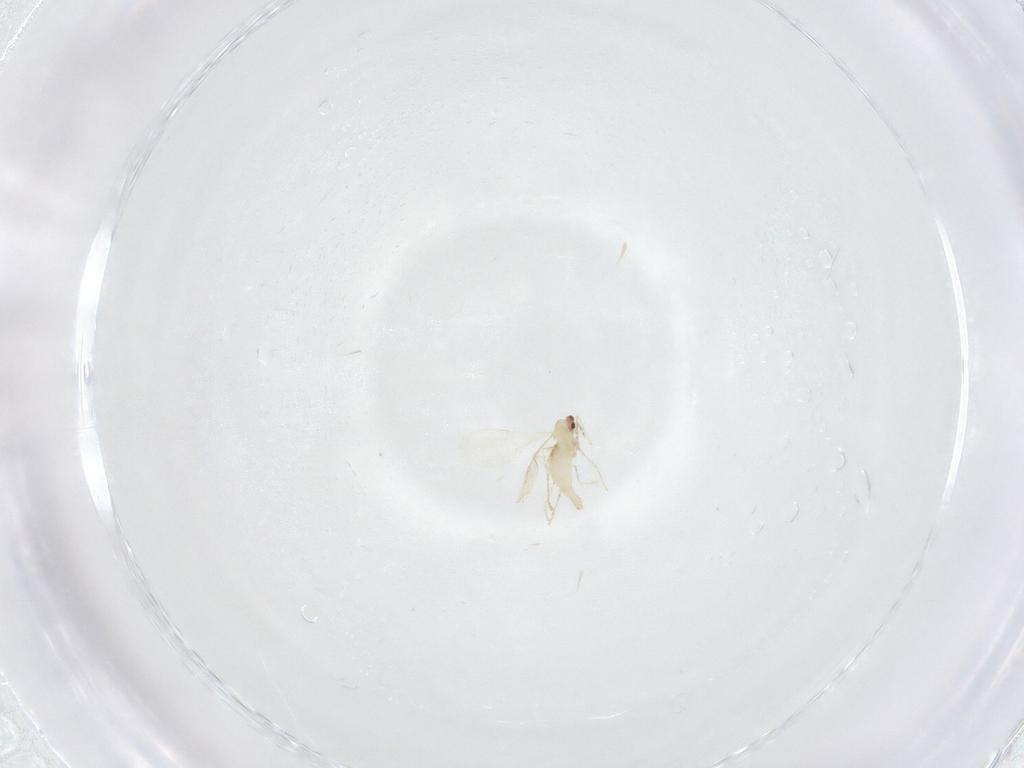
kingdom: Animalia
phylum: Arthropoda
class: Insecta
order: Diptera
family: Cecidomyiidae
